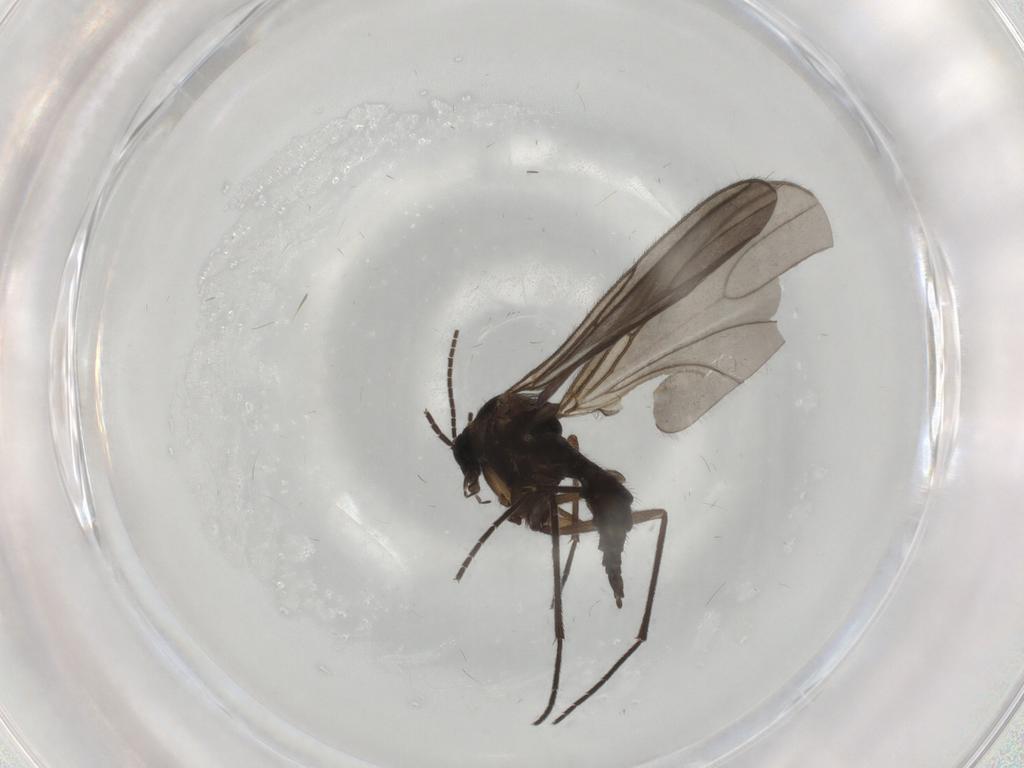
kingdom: Animalia
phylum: Arthropoda
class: Insecta
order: Diptera
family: Sciaridae
